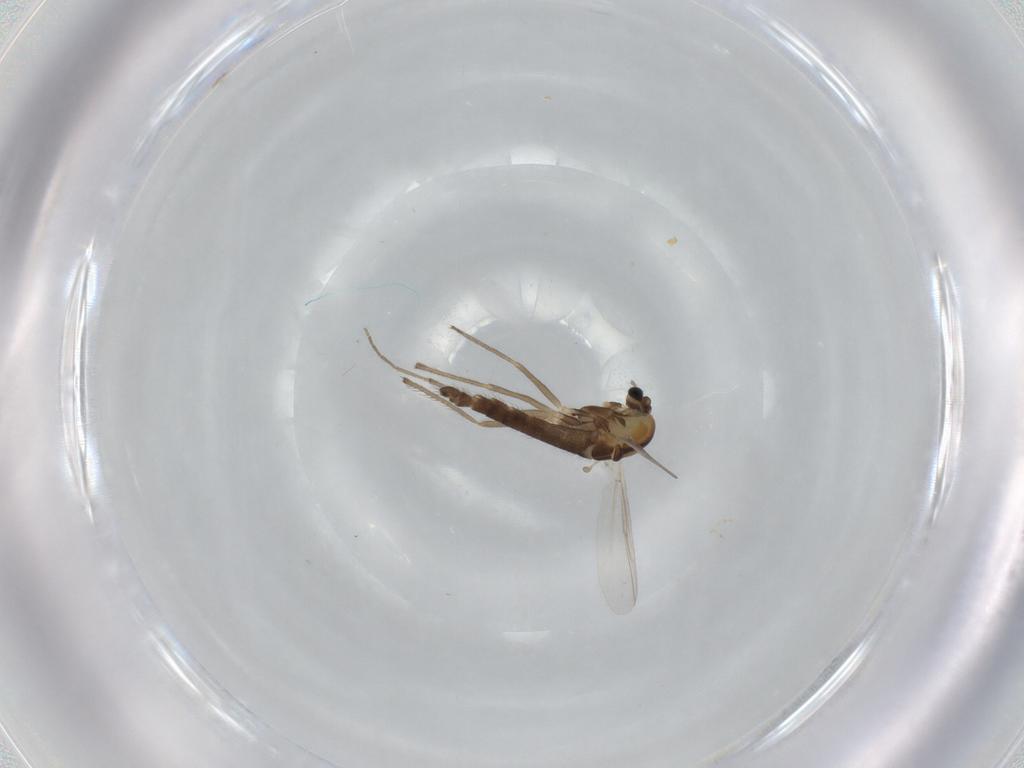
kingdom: Animalia
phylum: Arthropoda
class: Insecta
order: Diptera
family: Chironomidae
